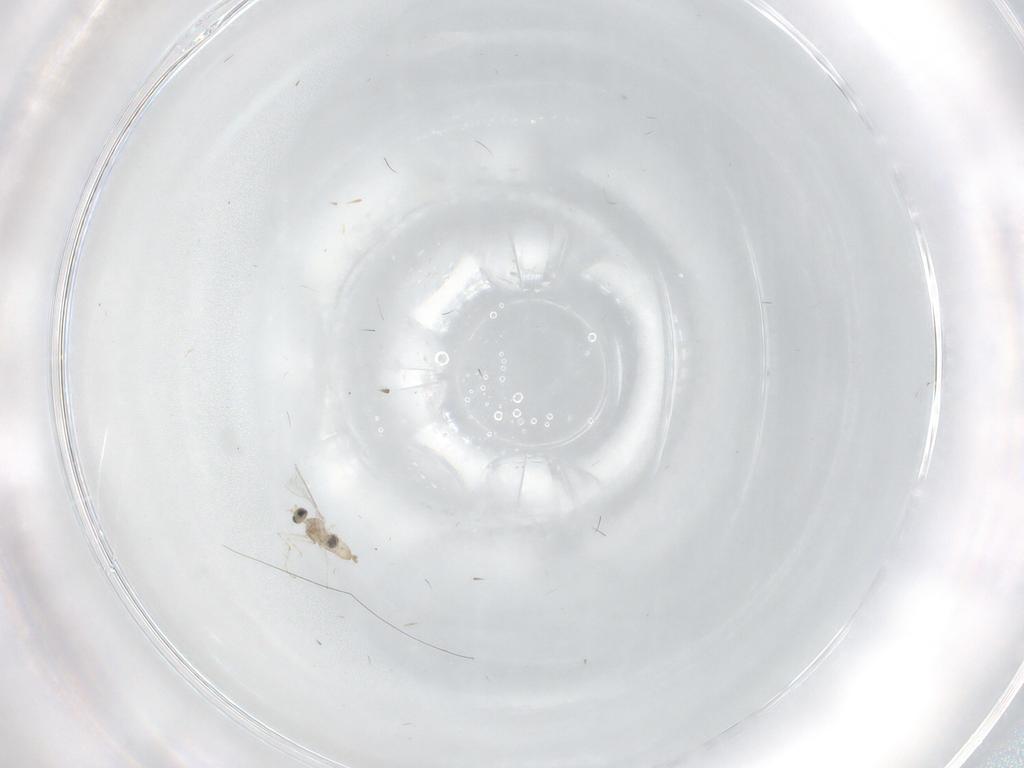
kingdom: Animalia
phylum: Arthropoda
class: Insecta
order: Diptera
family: Cecidomyiidae
